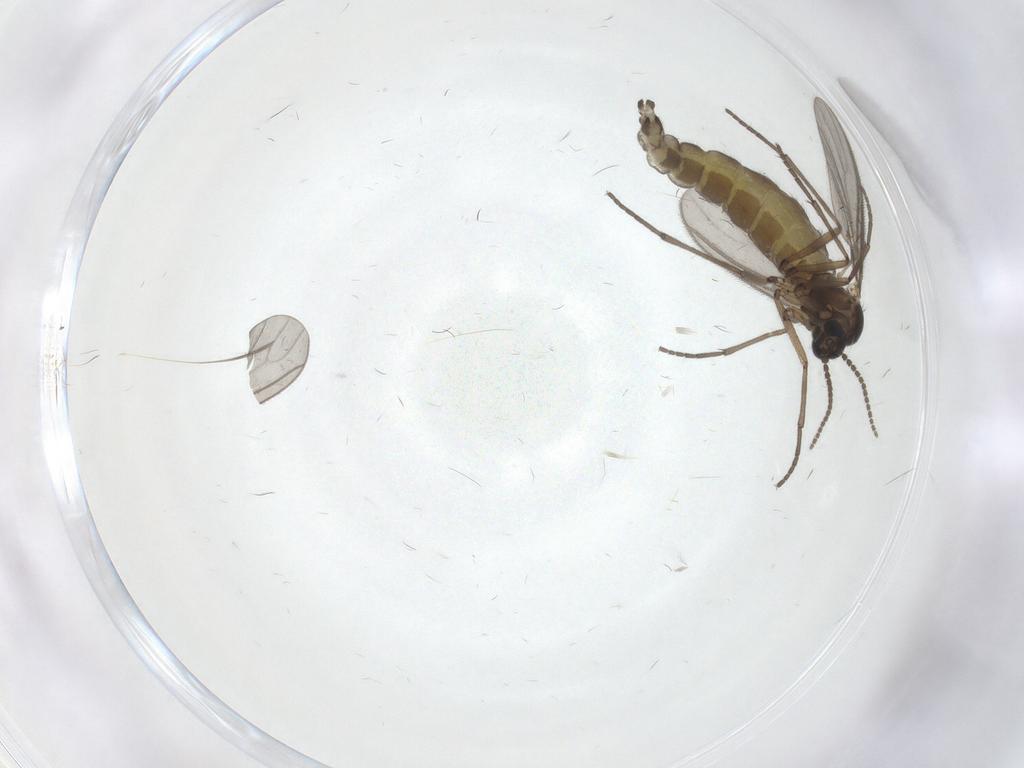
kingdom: Animalia
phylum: Arthropoda
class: Insecta
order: Diptera
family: Sciaridae
